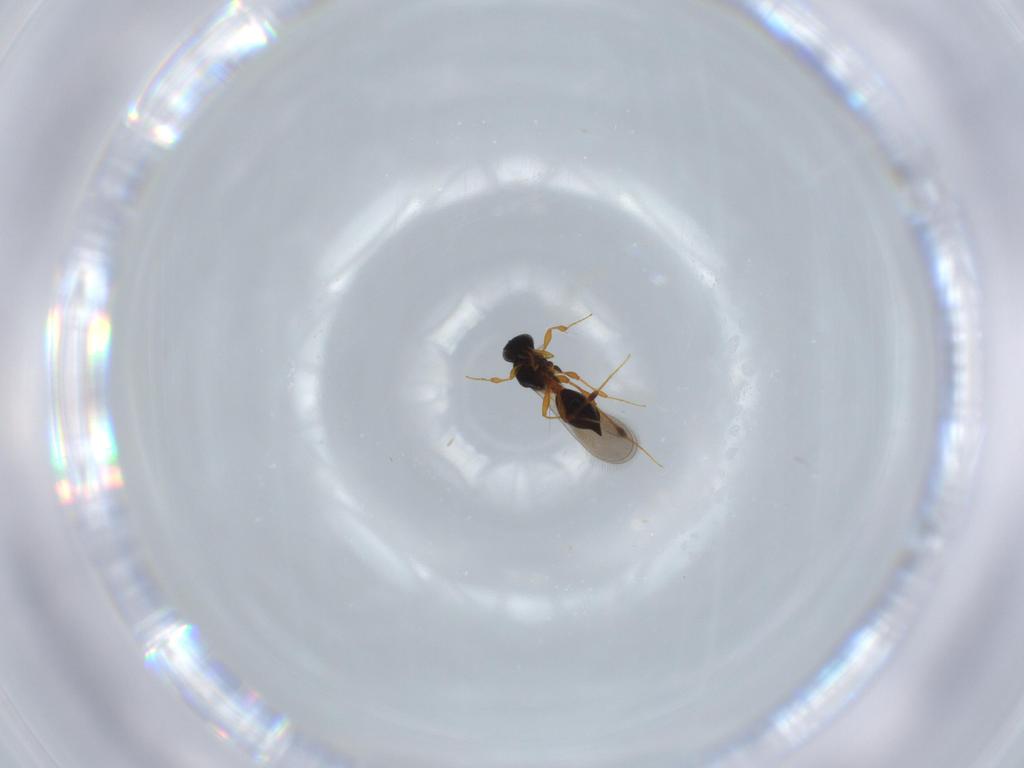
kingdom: Animalia
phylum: Arthropoda
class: Insecta
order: Hymenoptera
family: Platygastridae
